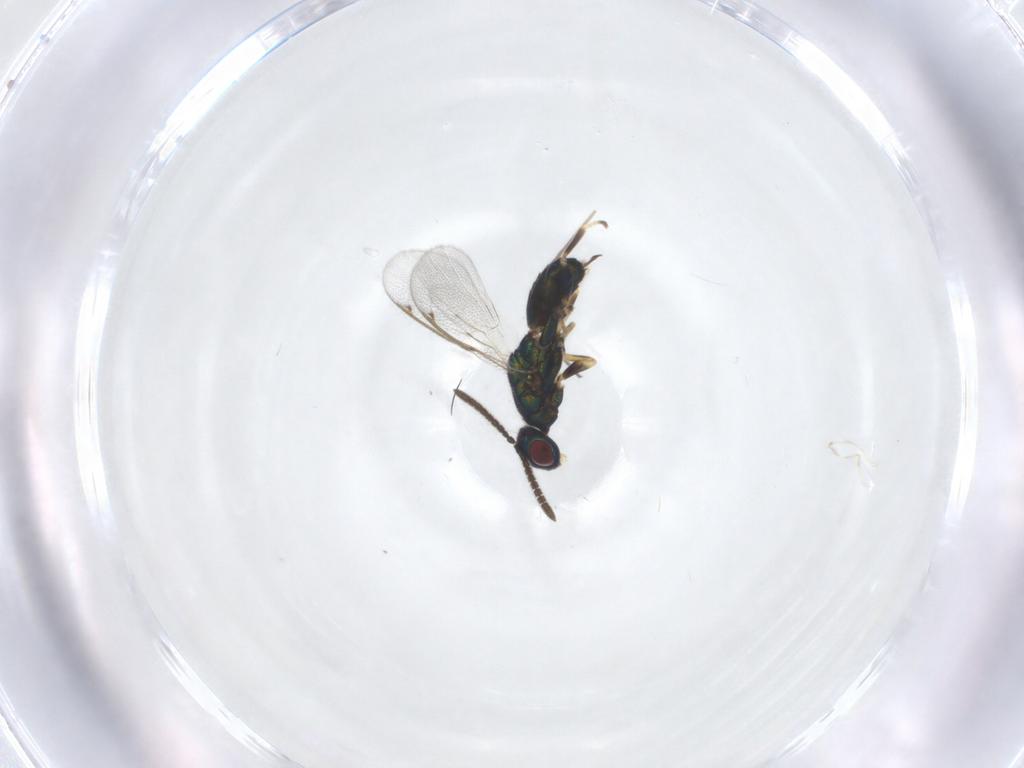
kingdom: Animalia
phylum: Arthropoda
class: Insecta
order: Hymenoptera
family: Torymidae
